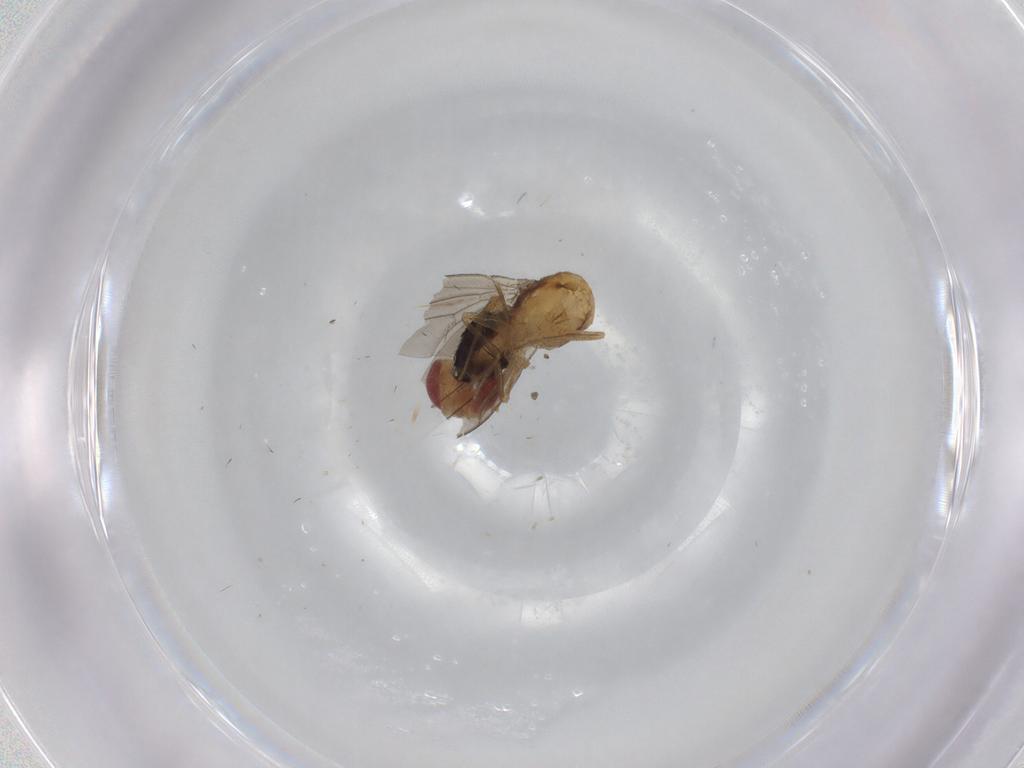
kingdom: Animalia
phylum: Arthropoda
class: Insecta
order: Diptera
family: Drosophilidae
